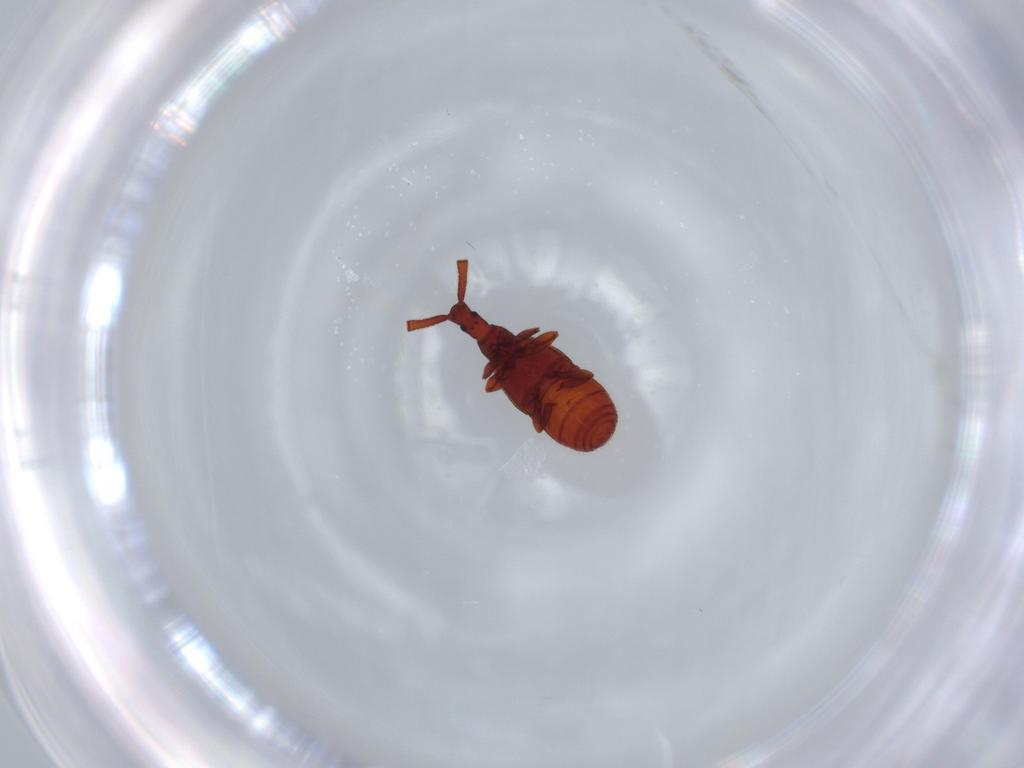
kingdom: Animalia
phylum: Arthropoda
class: Insecta
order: Coleoptera
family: Staphylinidae
